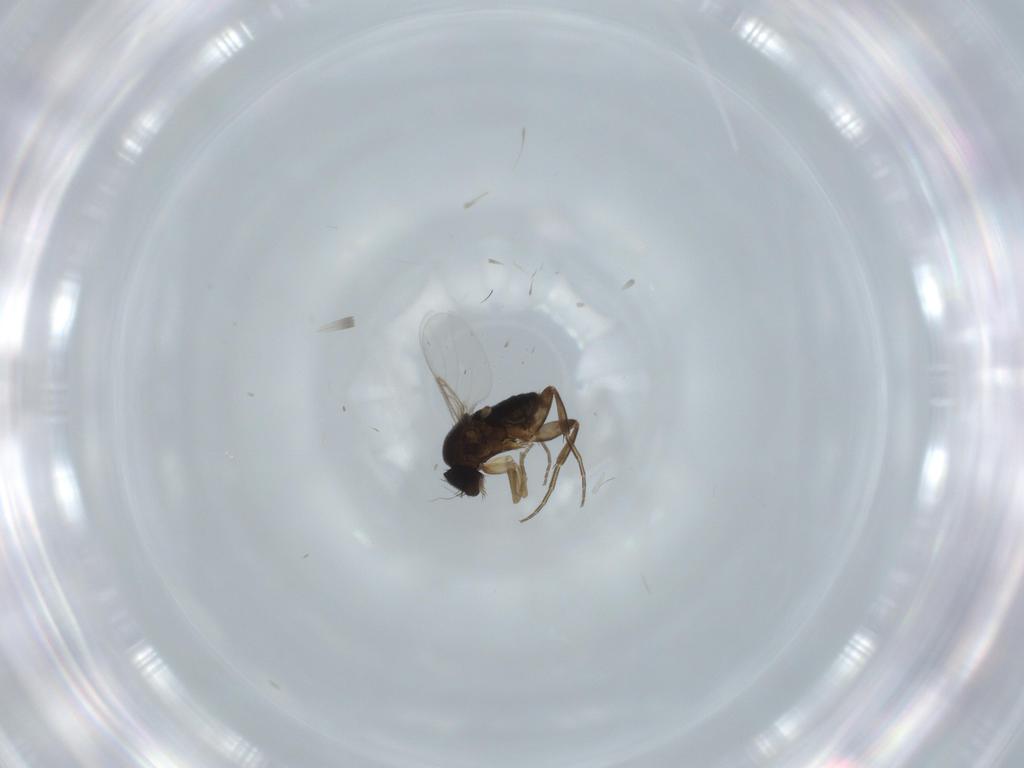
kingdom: Animalia
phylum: Arthropoda
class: Insecta
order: Diptera
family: Phoridae
